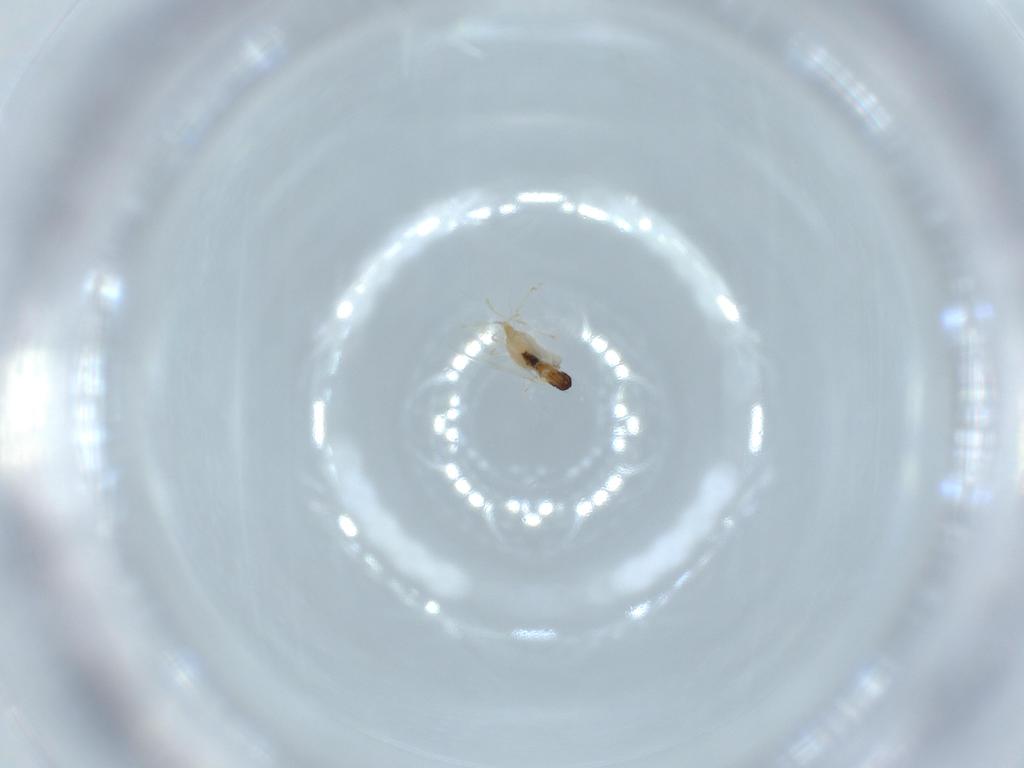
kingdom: Animalia
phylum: Arthropoda
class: Insecta
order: Diptera
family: Cecidomyiidae
